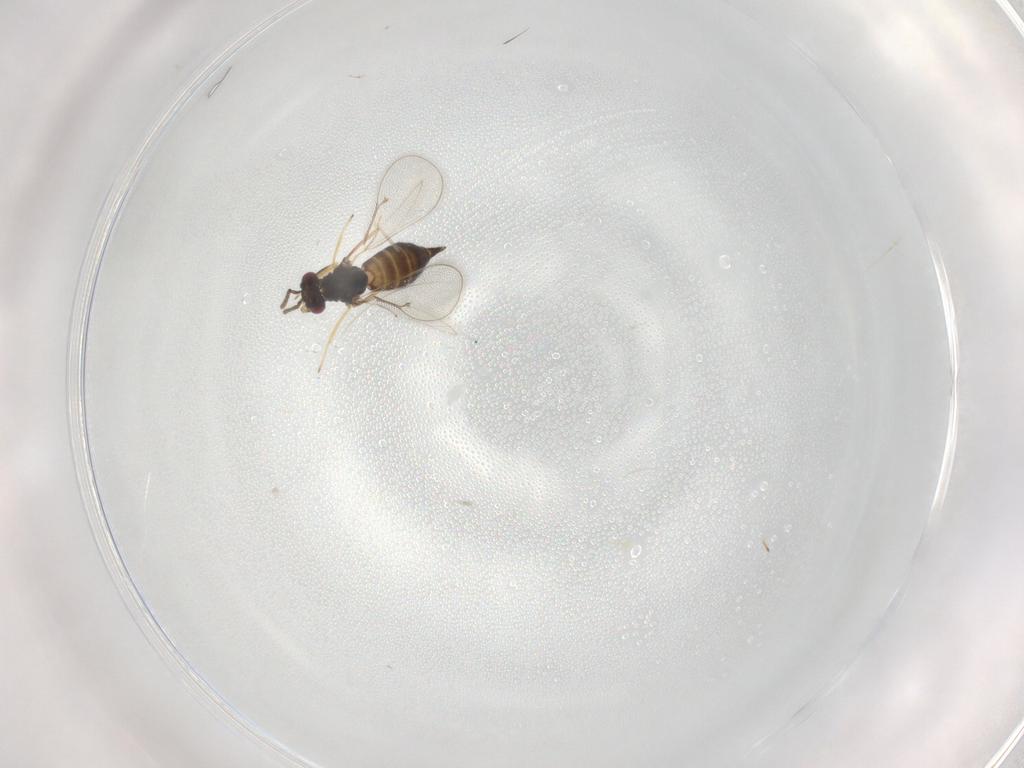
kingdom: Animalia
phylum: Arthropoda
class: Insecta
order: Hymenoptera
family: Eulophidae
